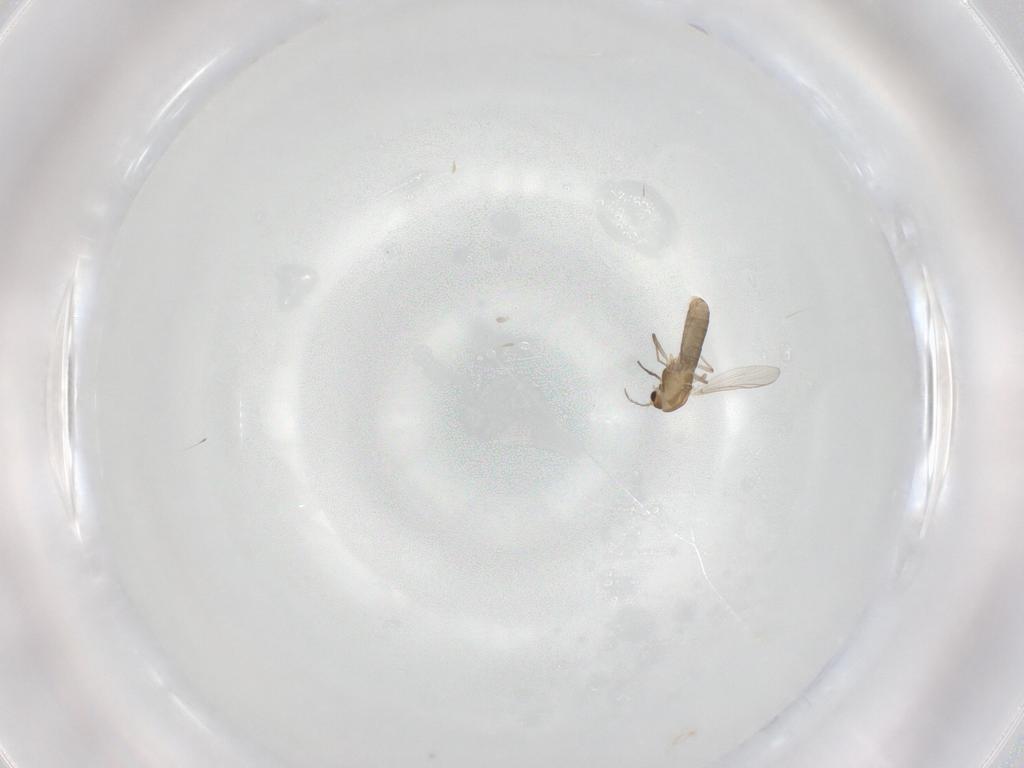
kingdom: Animalia
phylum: Arthropoda
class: Insecta
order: Diptera
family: Chironomidae
